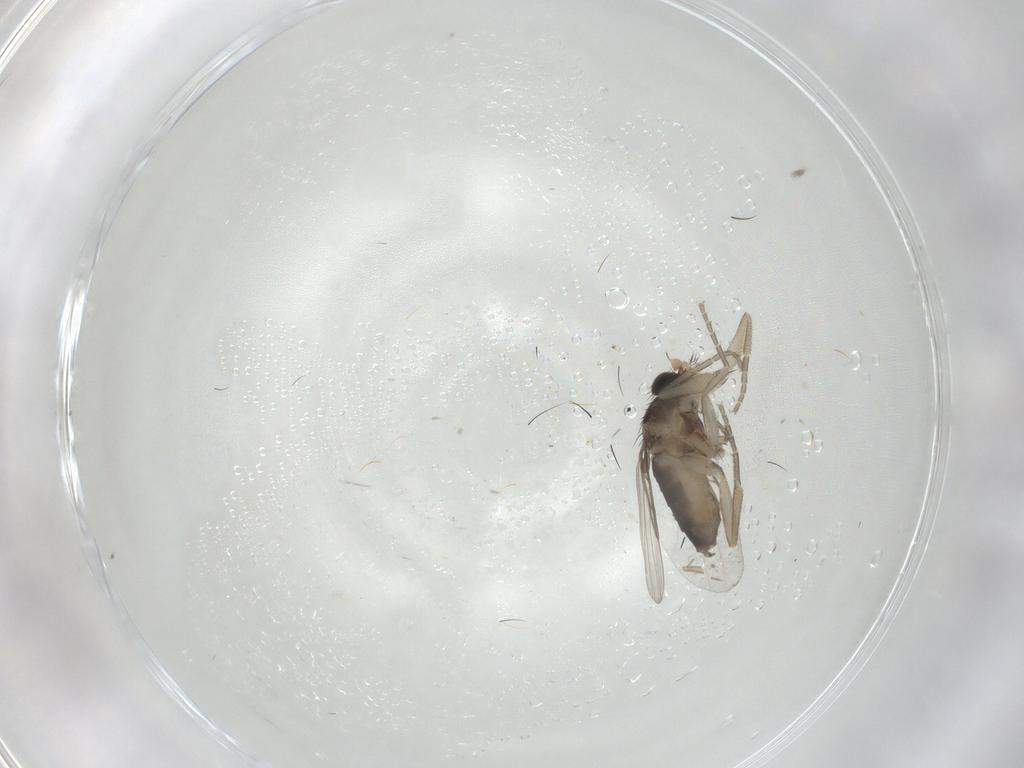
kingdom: Animalia
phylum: Arthropoda
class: Insecta
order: Diptera
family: Phoridae
